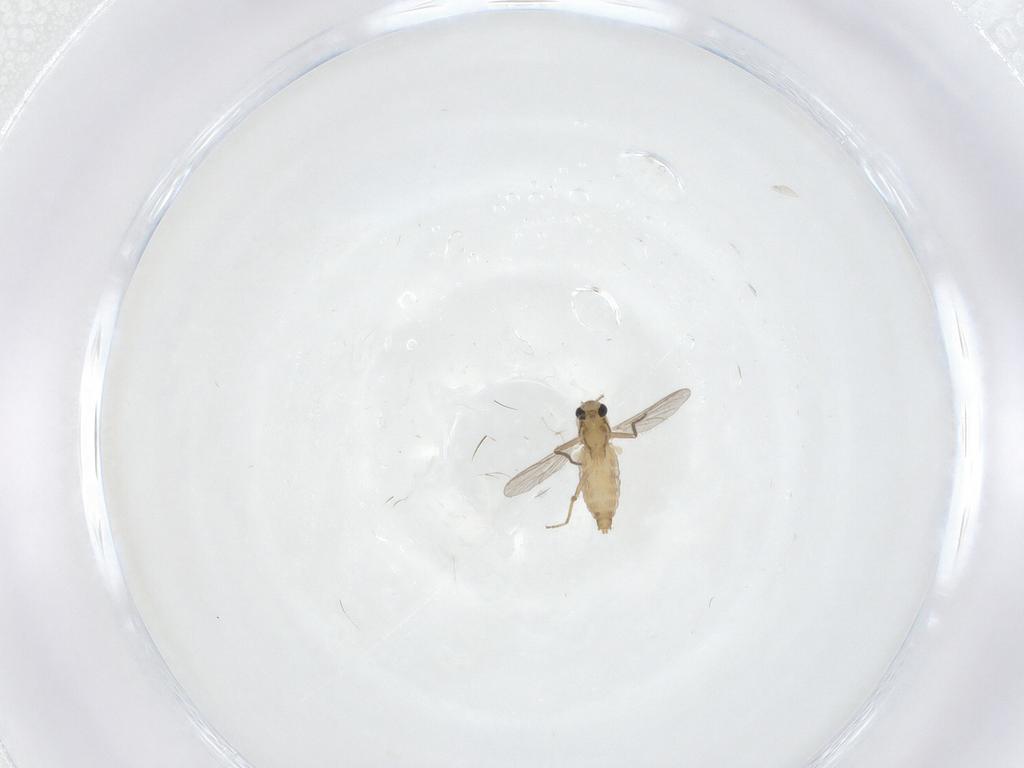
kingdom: Animalia
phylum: Arthropoda
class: Insecta
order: Diptera
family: Chironomidae
